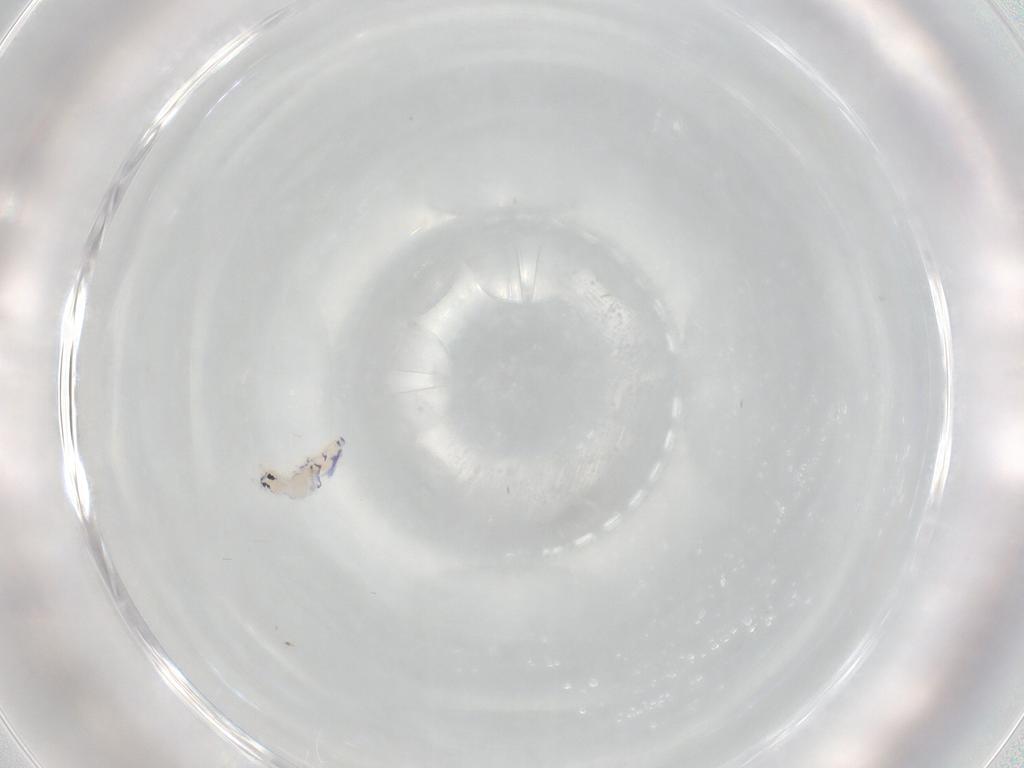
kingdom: Animalia
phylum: Arthropoda
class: Collembola
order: Entomobryomorpha
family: Entomobryidae
